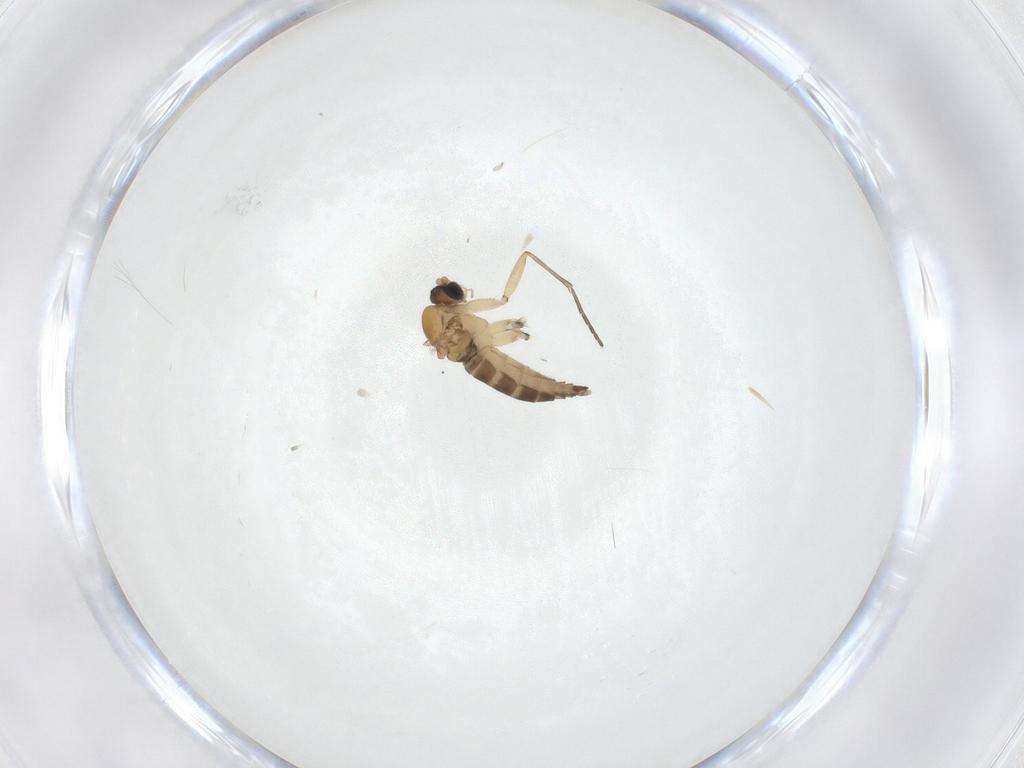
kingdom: Animalia
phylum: Arthropoda
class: Insecta
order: Diptera
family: Sciaridae
